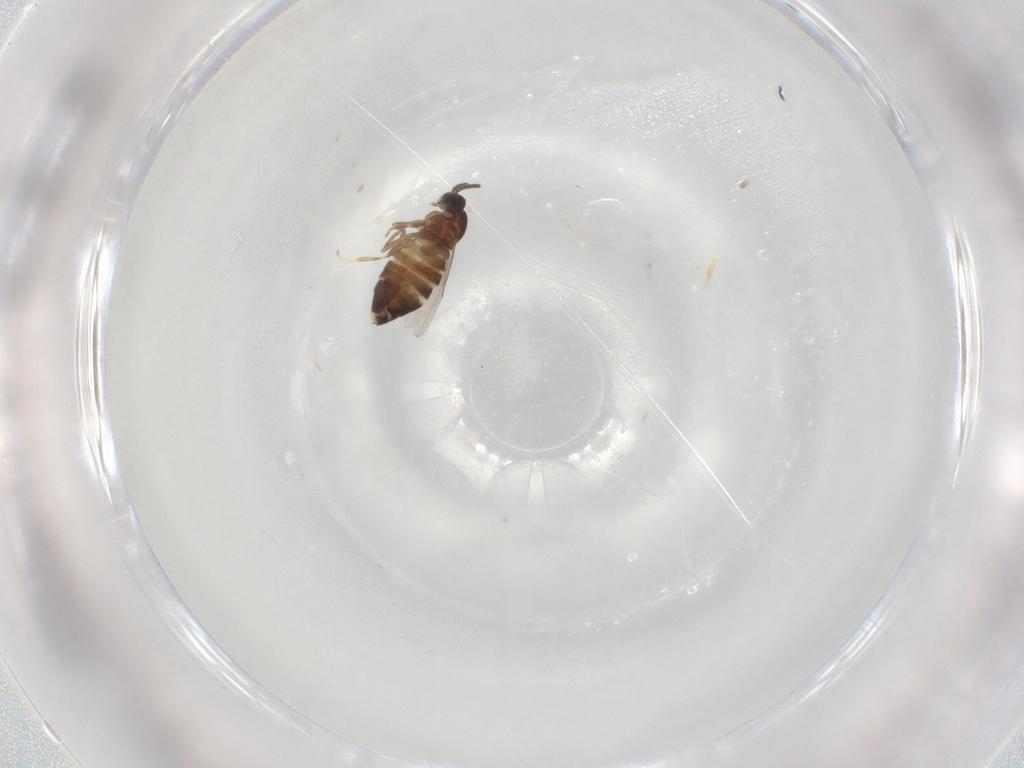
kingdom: Animalia
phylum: Arthropoda
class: Insecta
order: Diptera
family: Scatopsidae
